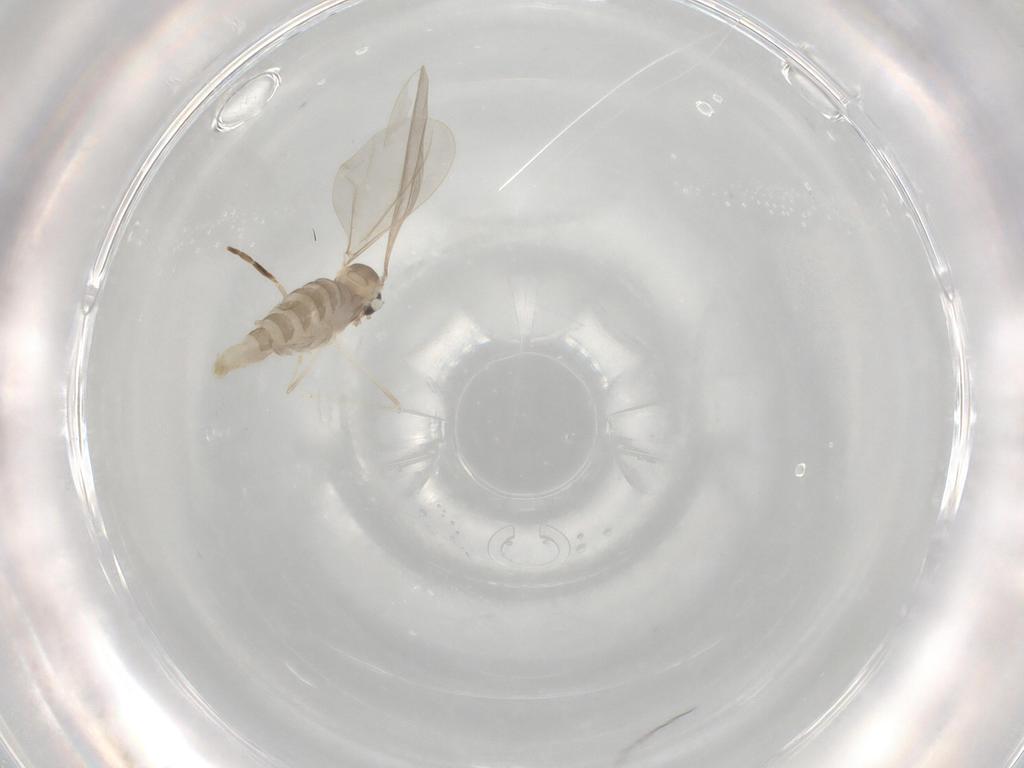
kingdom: Animalia
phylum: Arthropoda
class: Insecta
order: Diptera
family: Cecidomyiidae
